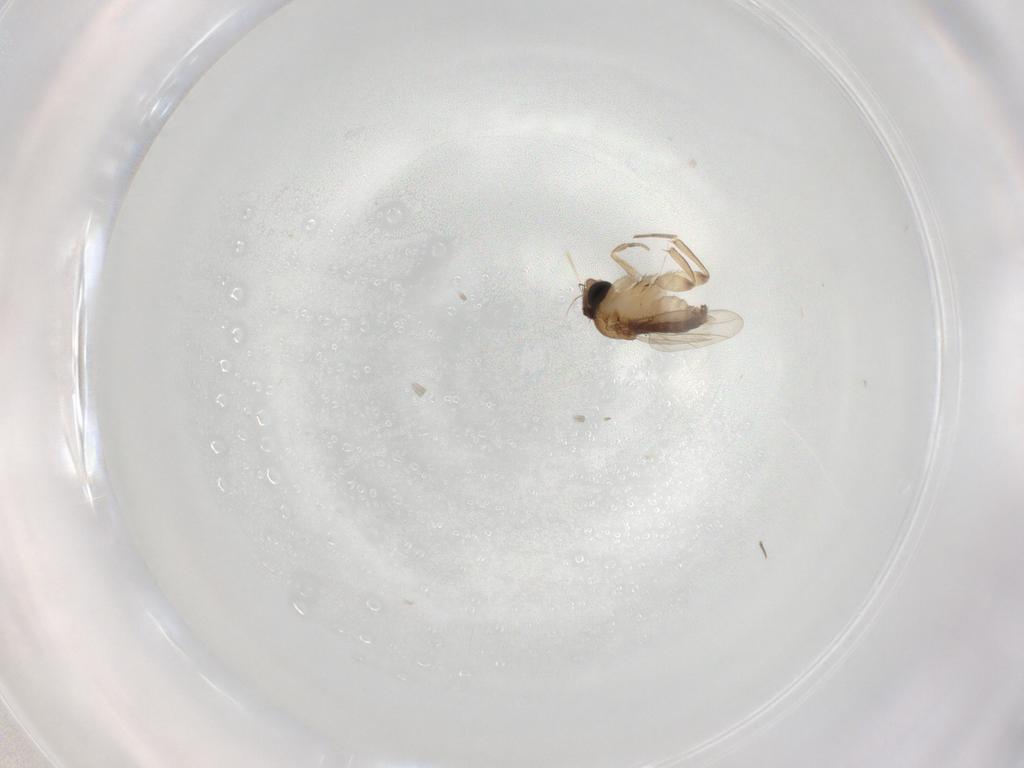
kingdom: Animalia
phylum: Arthropoda
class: Insecta
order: Diptera
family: Phoridae
